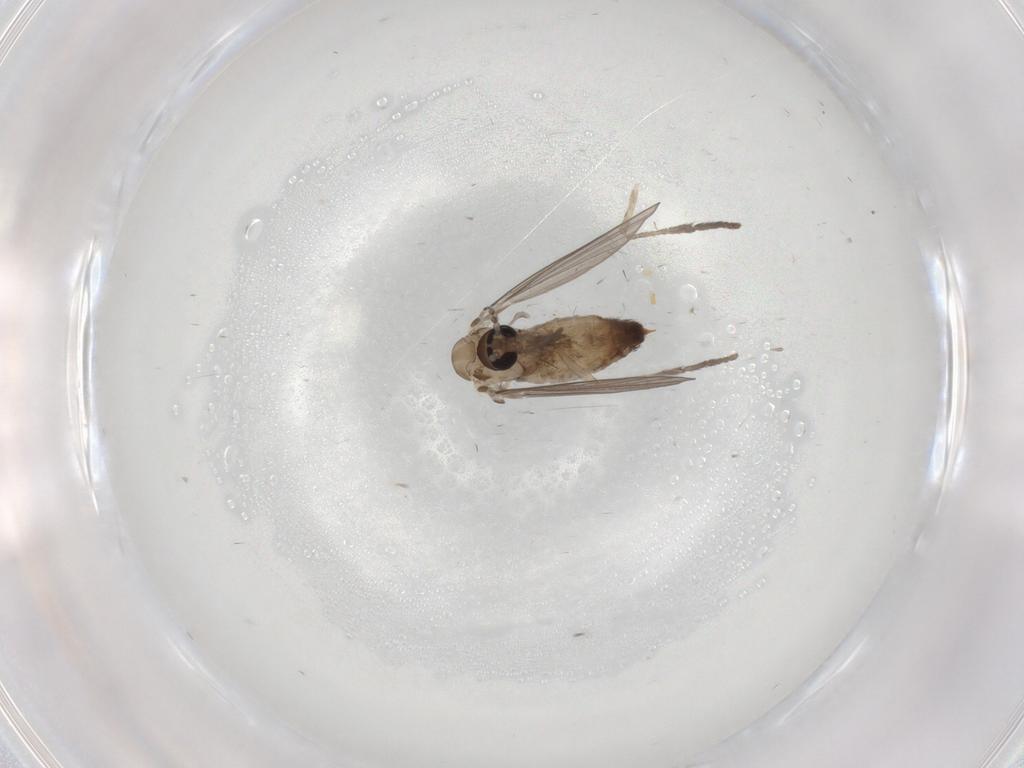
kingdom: Animalia
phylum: Arthropoda
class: Insecta
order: Diptera
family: Psychodidae
